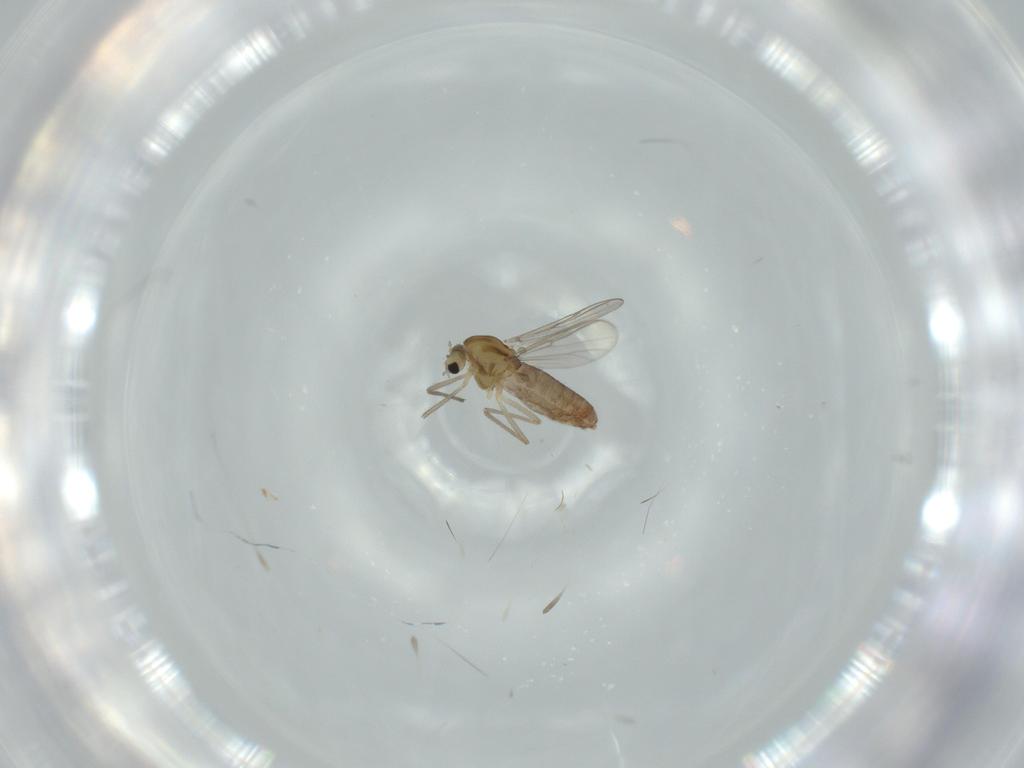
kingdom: Animalia
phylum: Arthropoda
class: Insecta
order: Diptera
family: Chironomidae
